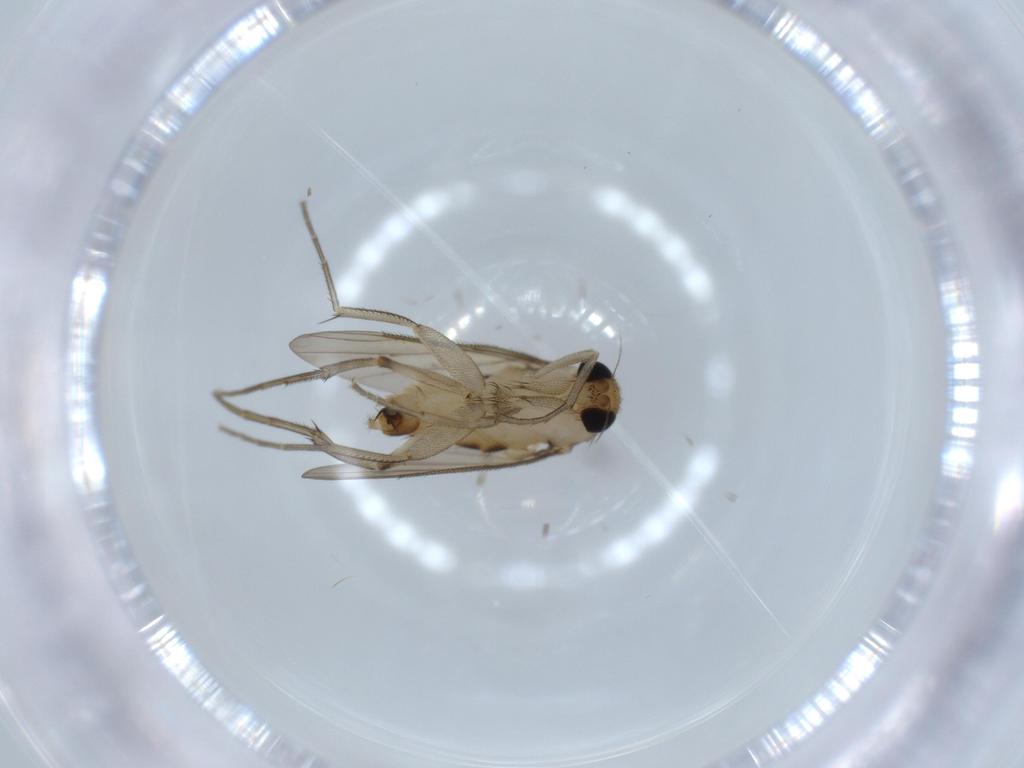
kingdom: Animalia
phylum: Arthropoda
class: Insecta
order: Diptera
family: Phoridae
